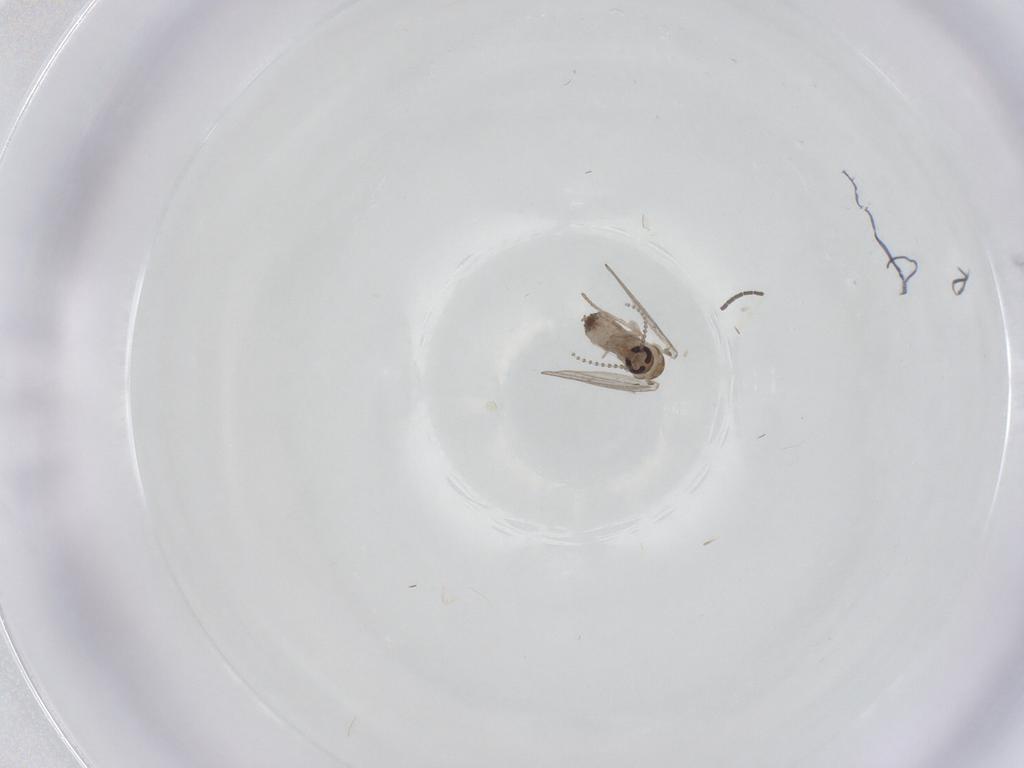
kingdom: Animalia
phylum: Arthropoda
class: Insecta
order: Diptera
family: Psychodidae
